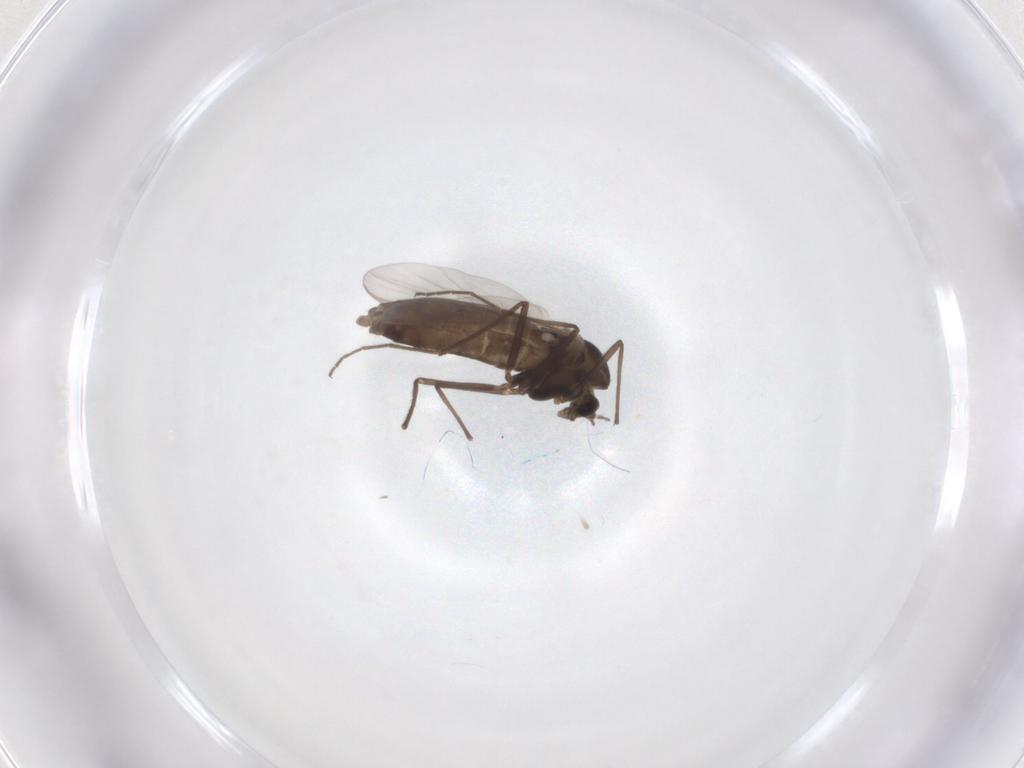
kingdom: Animalia
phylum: Arthropoda
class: Insecta
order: Diptera
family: Chironomidae
